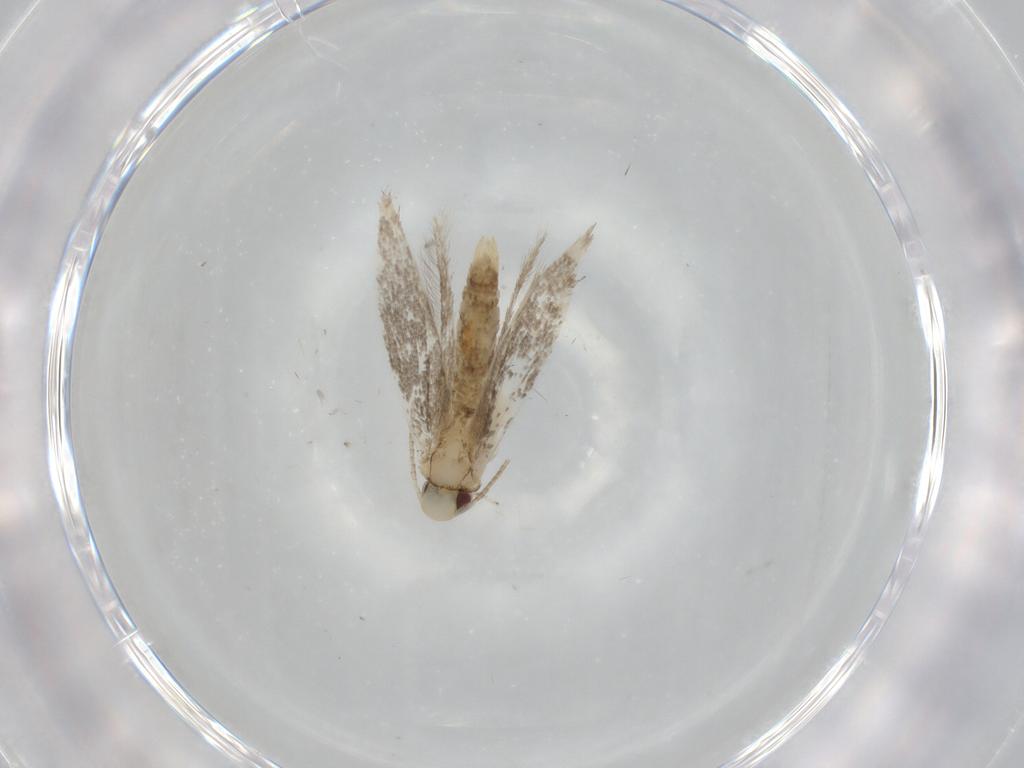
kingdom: Animalia
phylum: Arthropoda
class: Insecta
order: Lepidoptera
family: Gracillariidae
